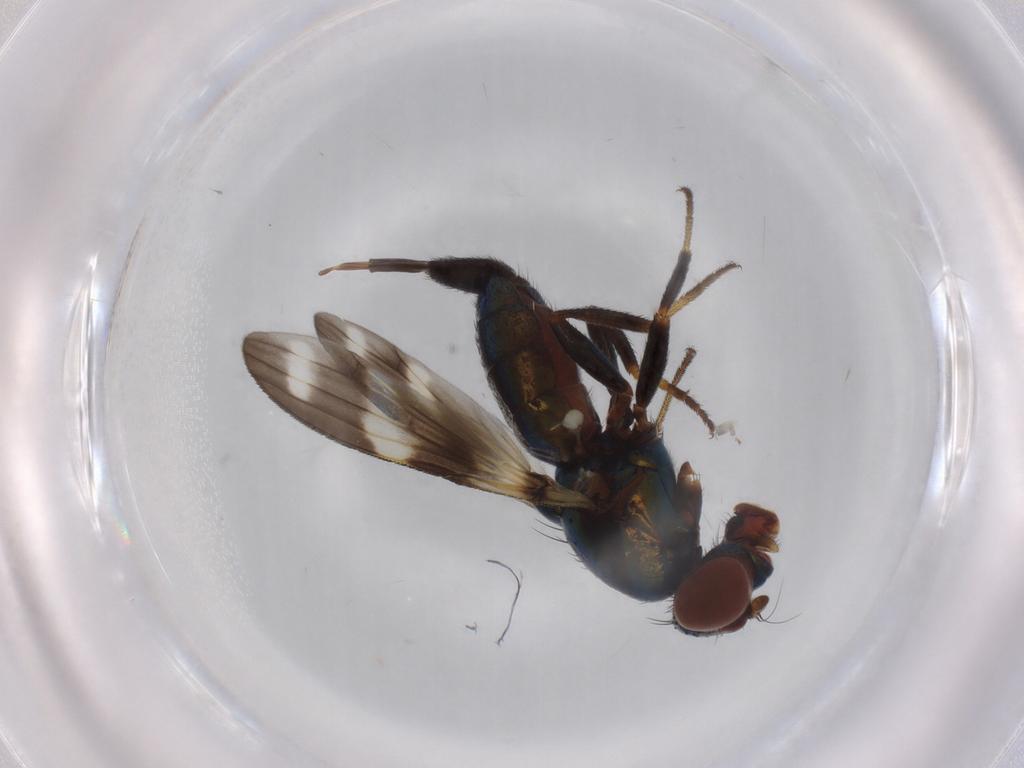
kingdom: Animalia
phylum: Arthropoda
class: Insecta
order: Diptera
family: Ulidiidae
